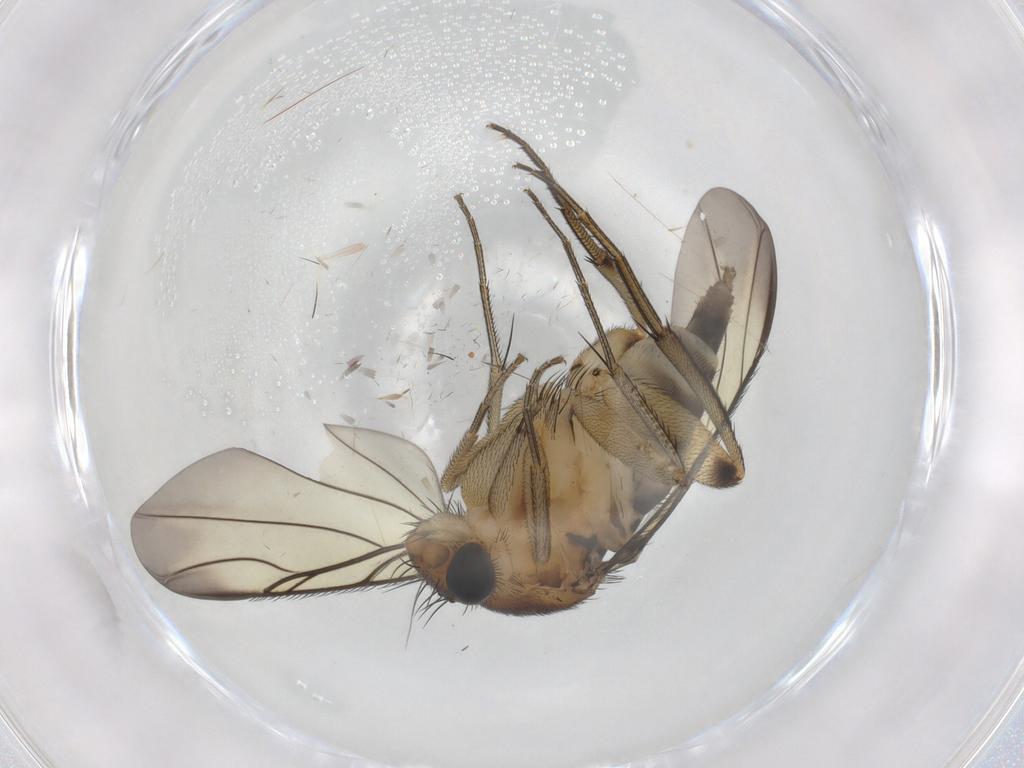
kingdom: Animalia
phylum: Arthropoda
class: Insecta
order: Diptera
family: Phoridae
